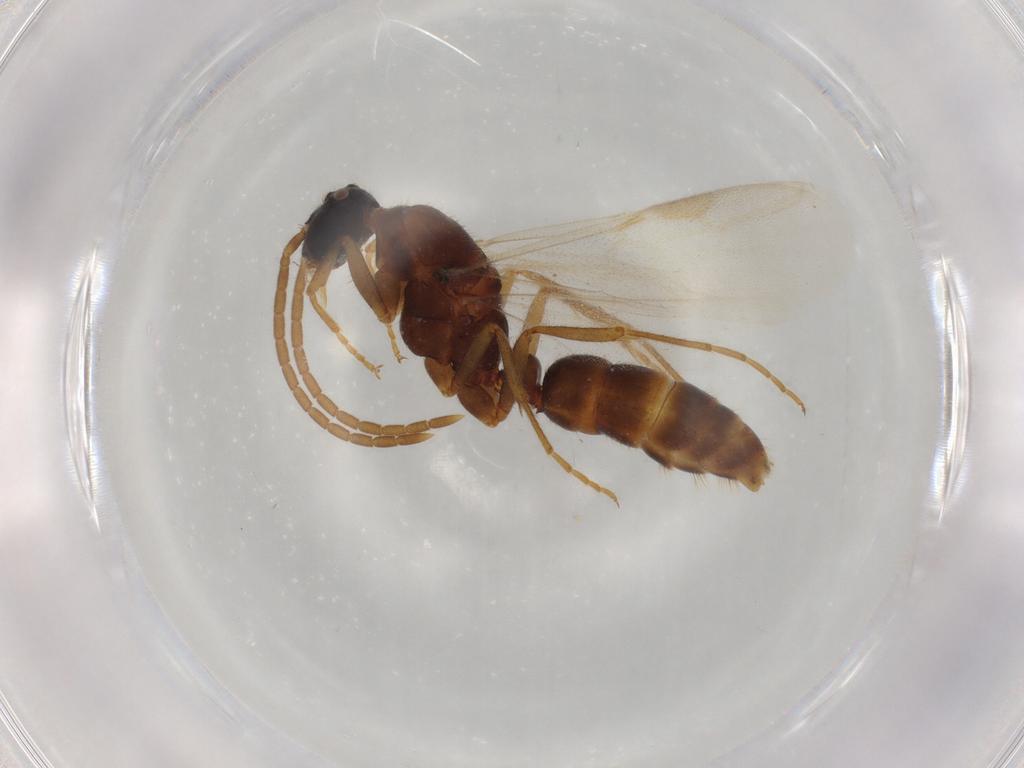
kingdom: Animalia
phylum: Arthropoda
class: Insecta
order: Hymenoptera
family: Formicidae
